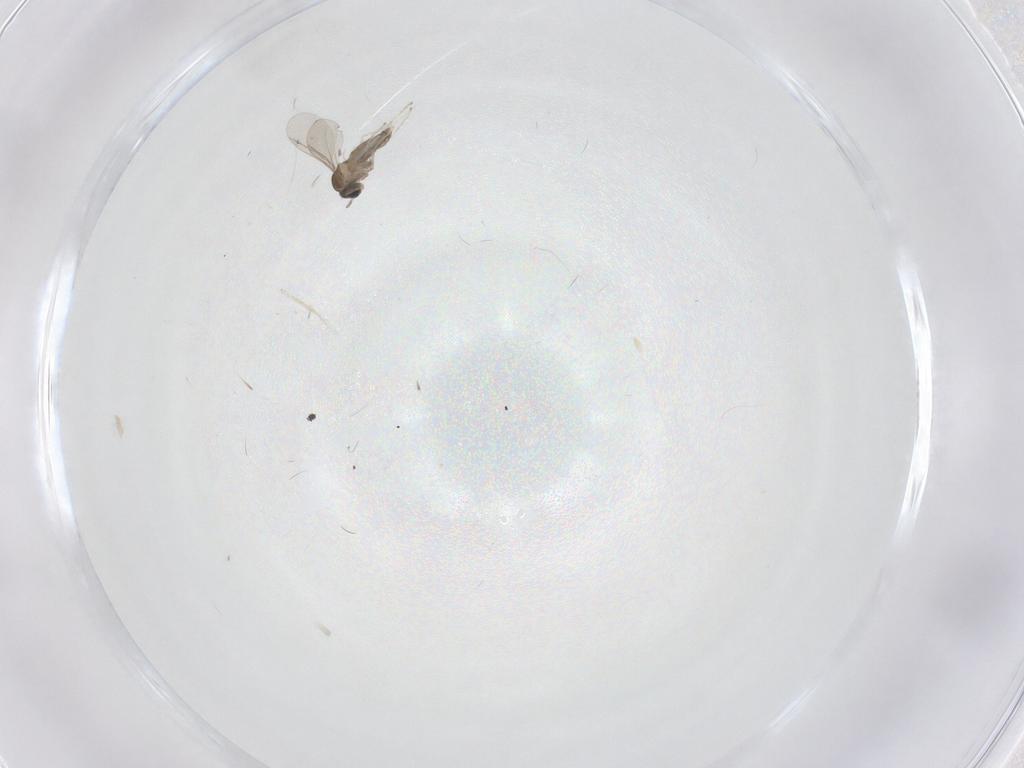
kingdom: Animalia
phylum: Arthropoda
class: Insecta
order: Diptera
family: Cecidomyiidae
